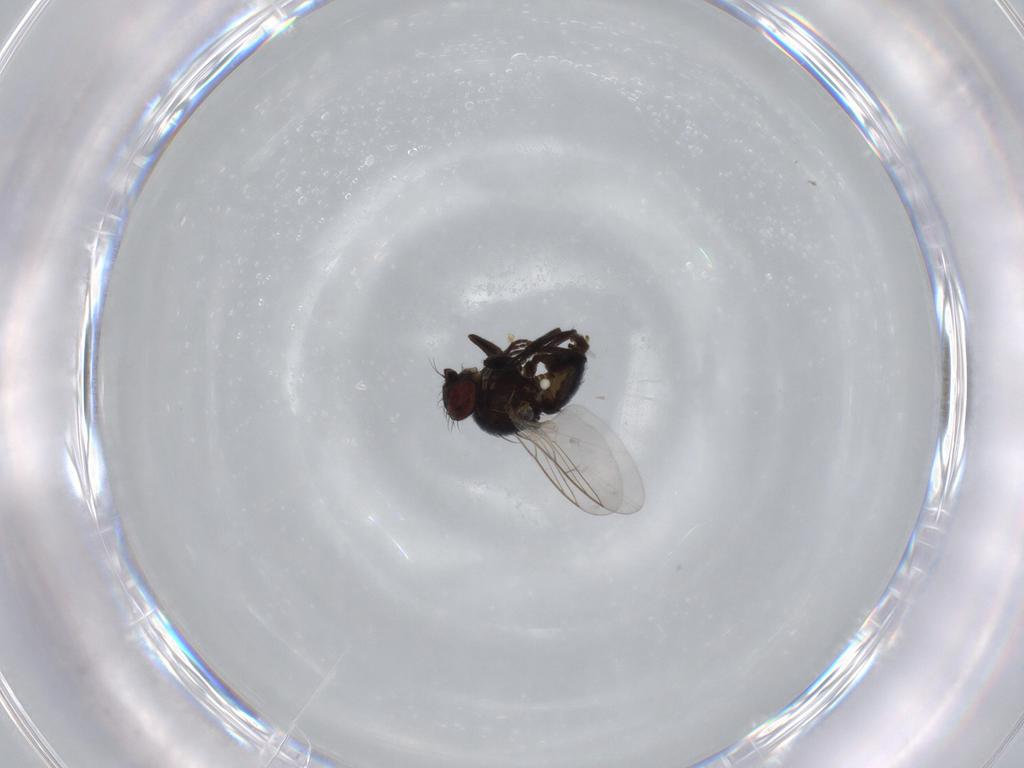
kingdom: Animalia
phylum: Arthropoda
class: Insecta
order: Diptera
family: Agromyzidae
